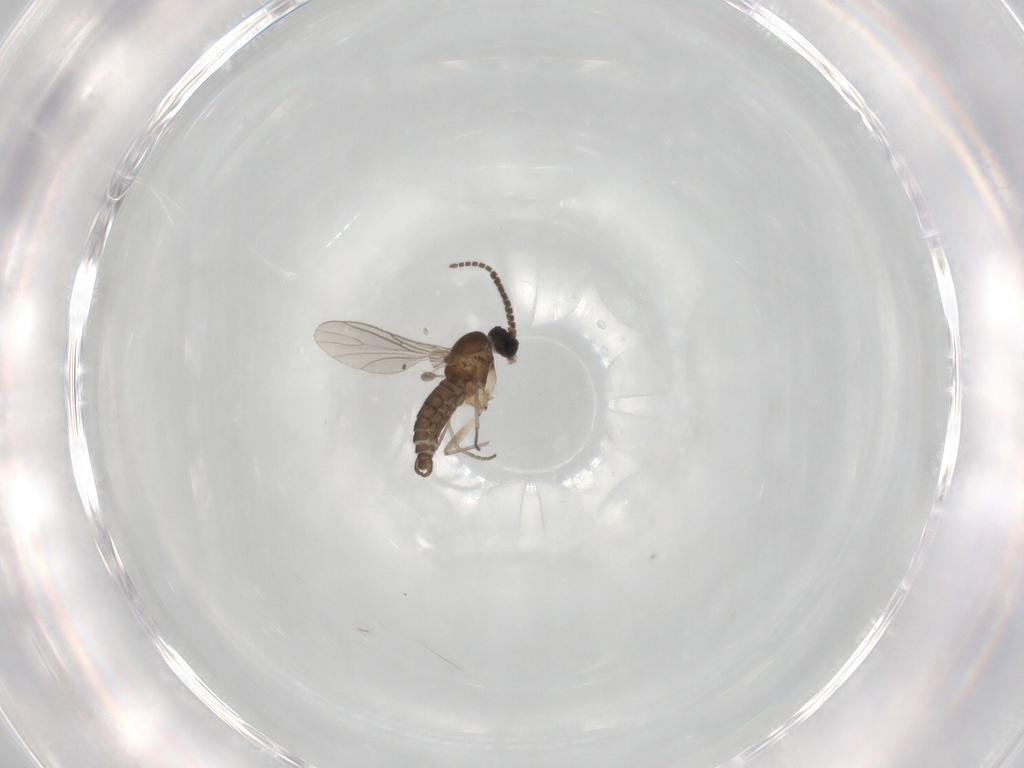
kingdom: Animalia
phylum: Arthropoda
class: Insecta
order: Diptera
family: Sciaridae
